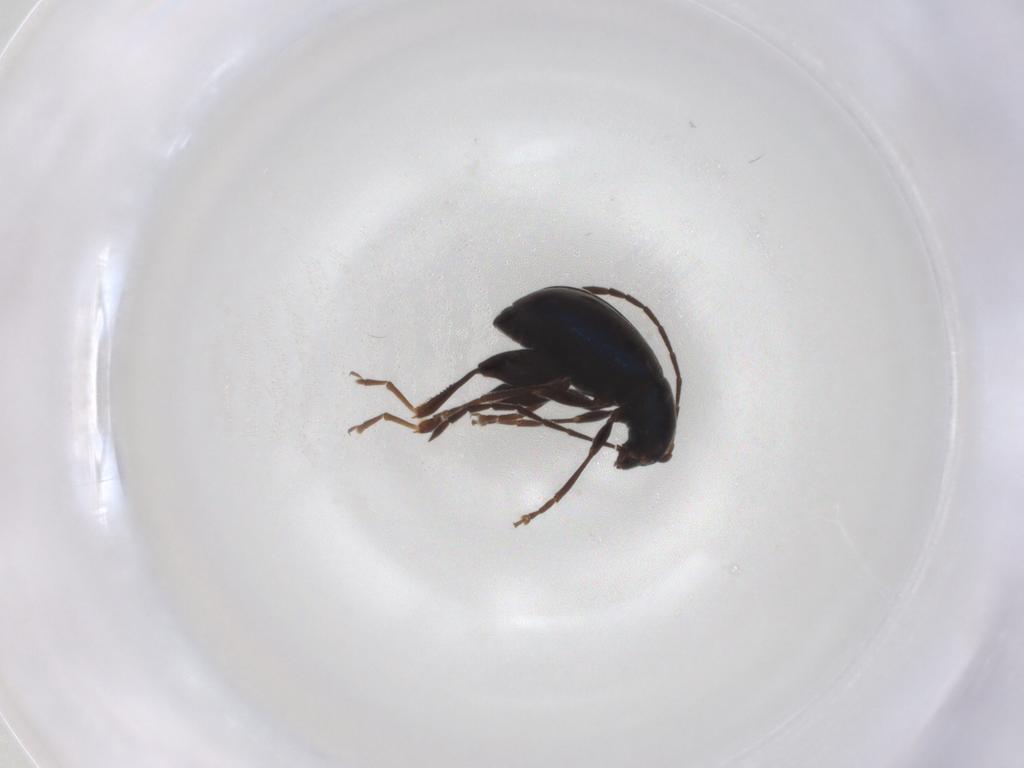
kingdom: Animalia
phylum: Arthropoda
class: Insecta
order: Coleoptera
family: Chrysomelidae
